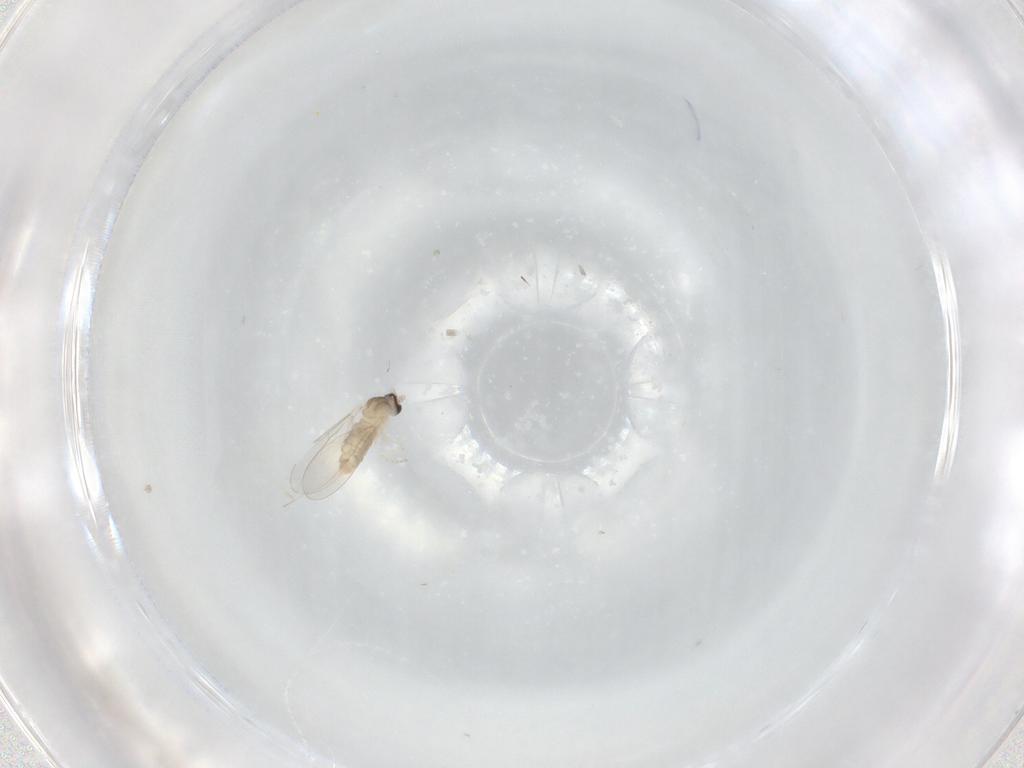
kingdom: Animalia
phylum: Arthropoda
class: Insecta
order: Diptera
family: Cecidomyiidae
